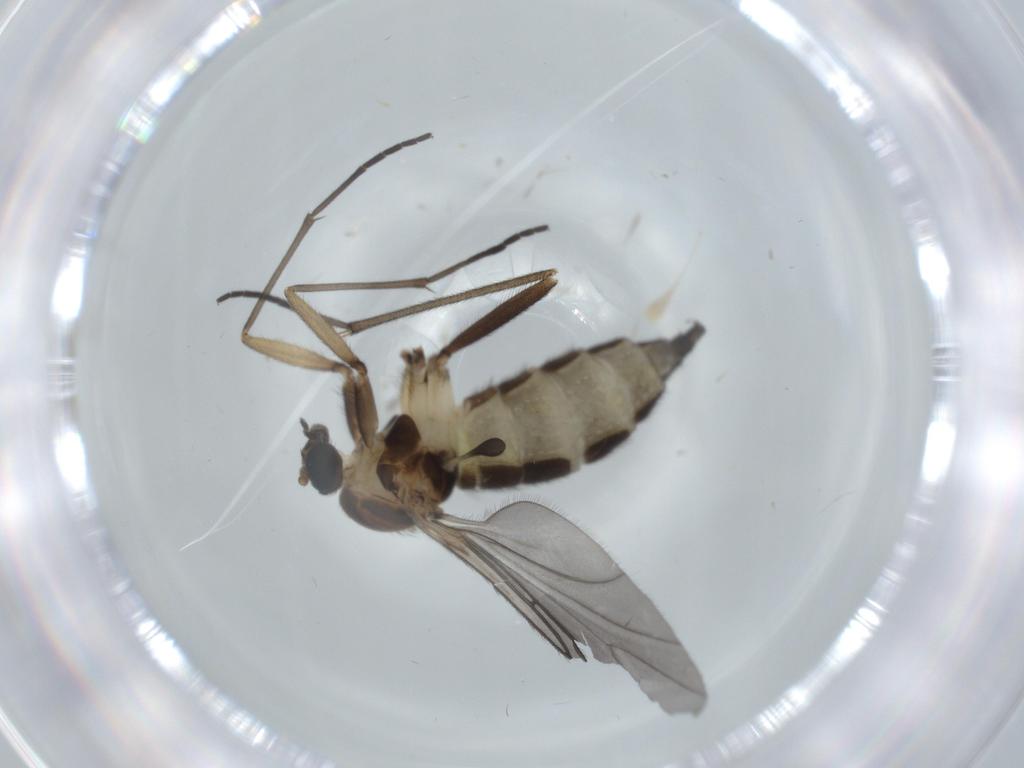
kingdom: Animalia
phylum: Arthropoda
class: Insecta
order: Diptera
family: Sciaridae
